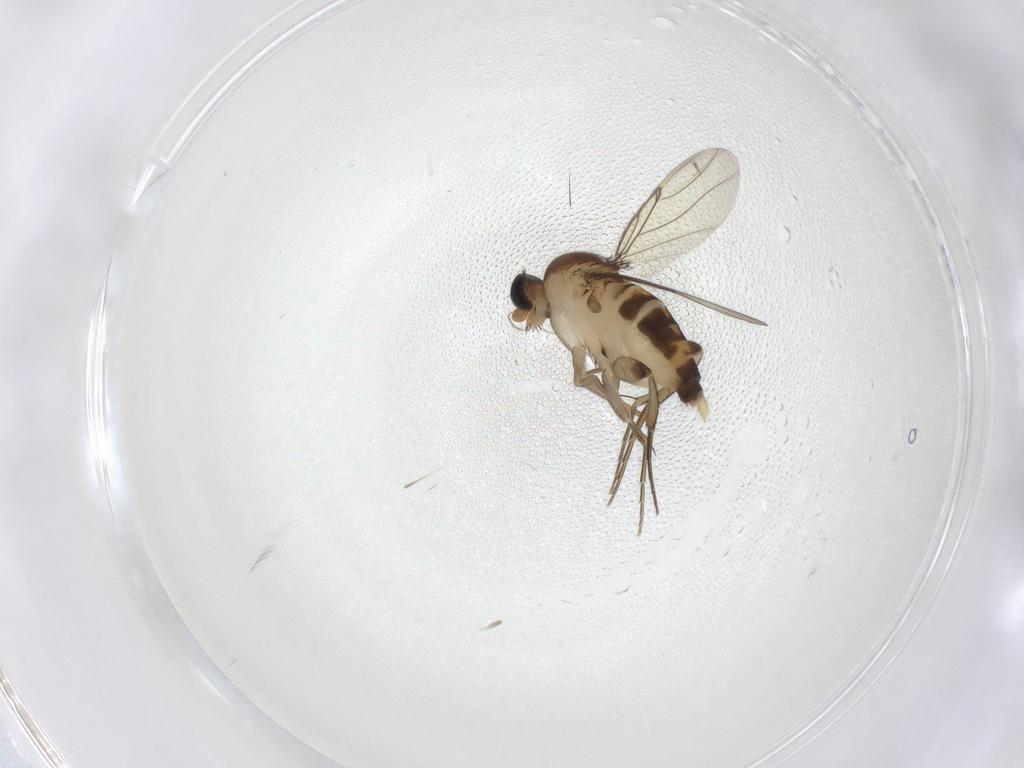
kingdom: Animalia
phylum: Arthropoda
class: Insecta
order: Diptera
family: Phoridae
